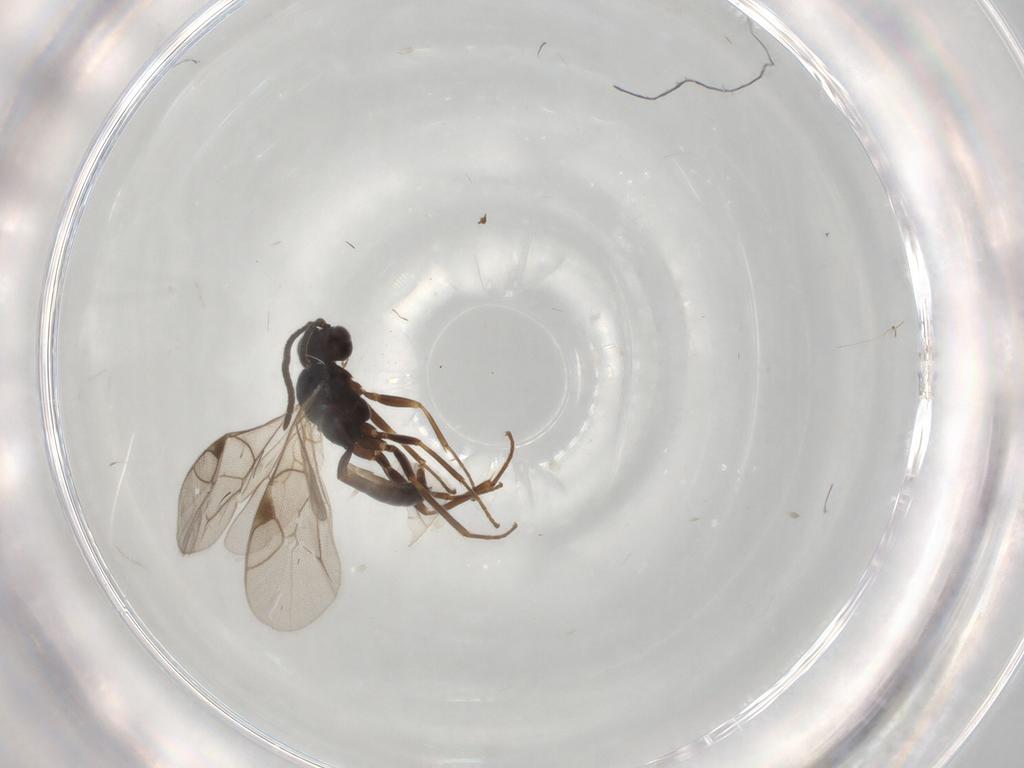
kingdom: Animalia
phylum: Arthropoda
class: Insecta
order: Hymenoptera
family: Ichneumonidae
